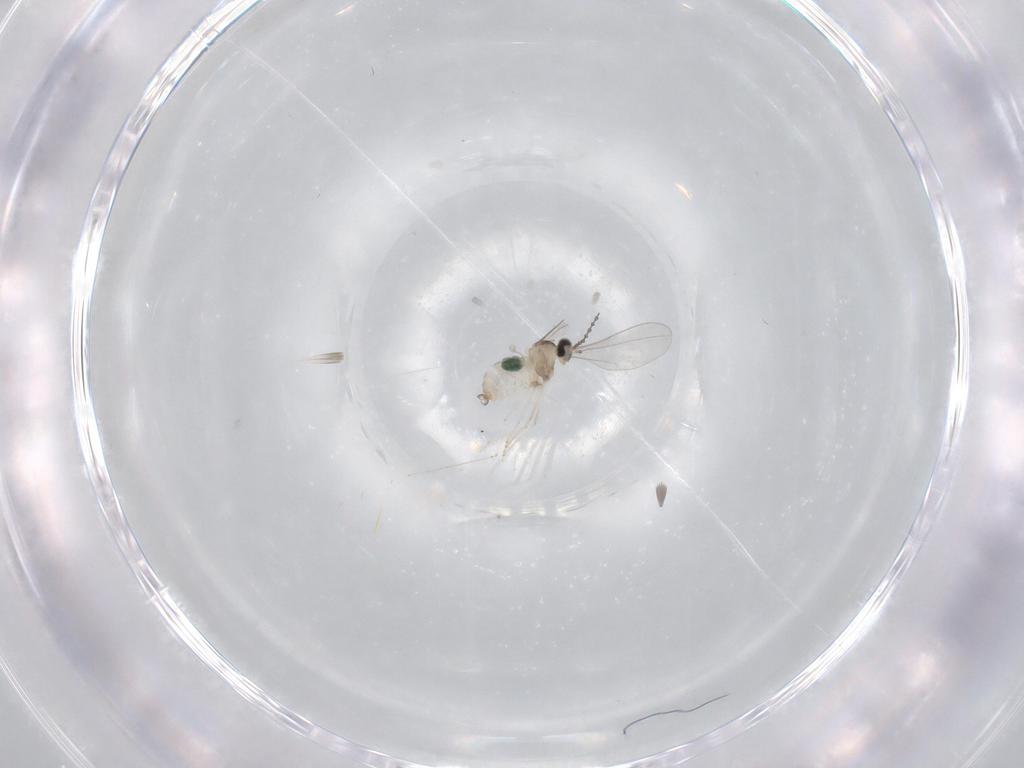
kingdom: Animalia
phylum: Arthropoda
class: Insecta
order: Diptera
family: Cecidomyiidae
